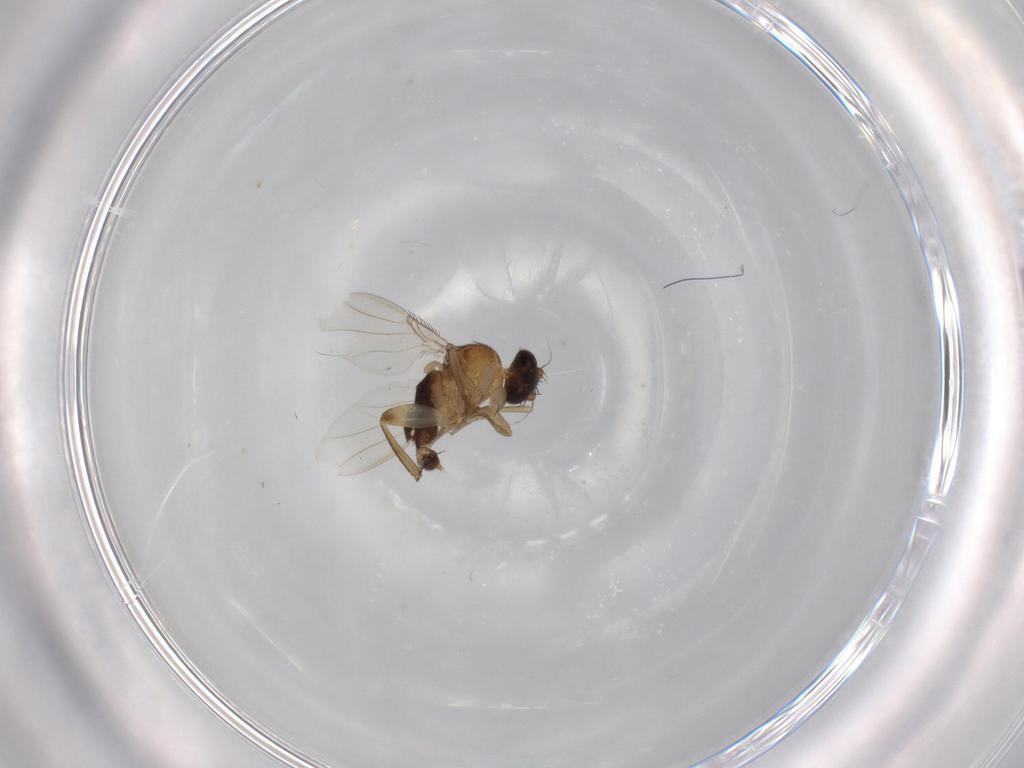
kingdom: Animalia
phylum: Arthropoda
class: Insecta
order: Diptera
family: Phoridae
